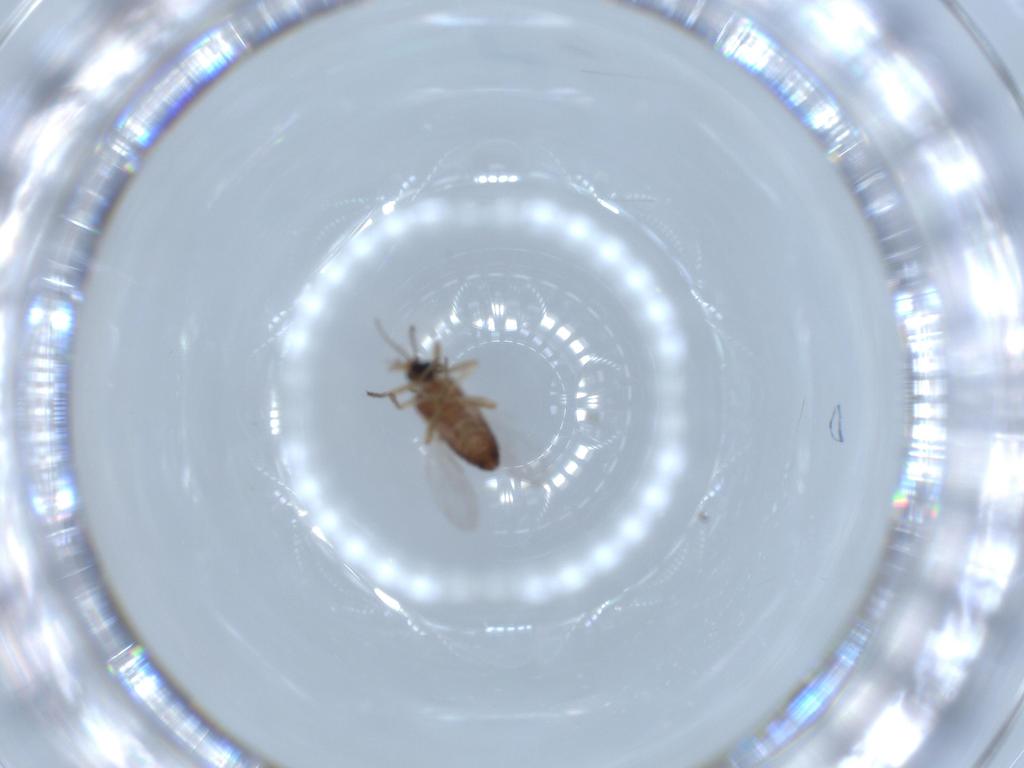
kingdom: Animalia
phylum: Arthropoda
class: Insecta
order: Diptera
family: Ceratopogonidae
